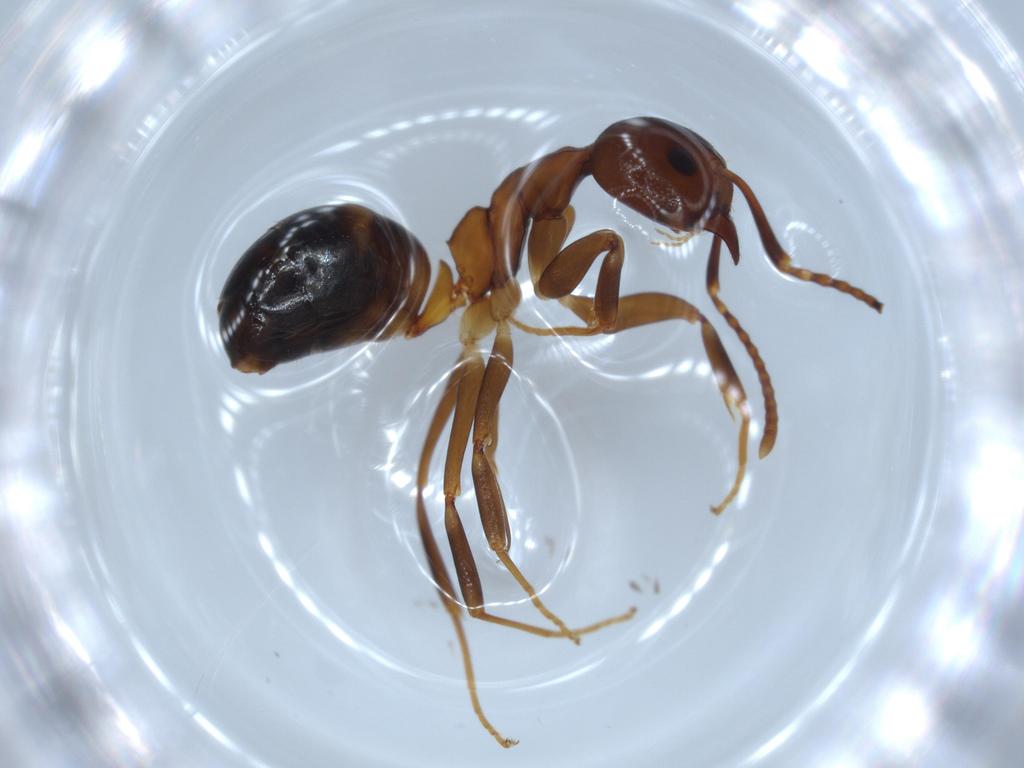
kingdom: Animalia
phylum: Arthropoda
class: Insecta
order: Hymenoptera
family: Formicidae
